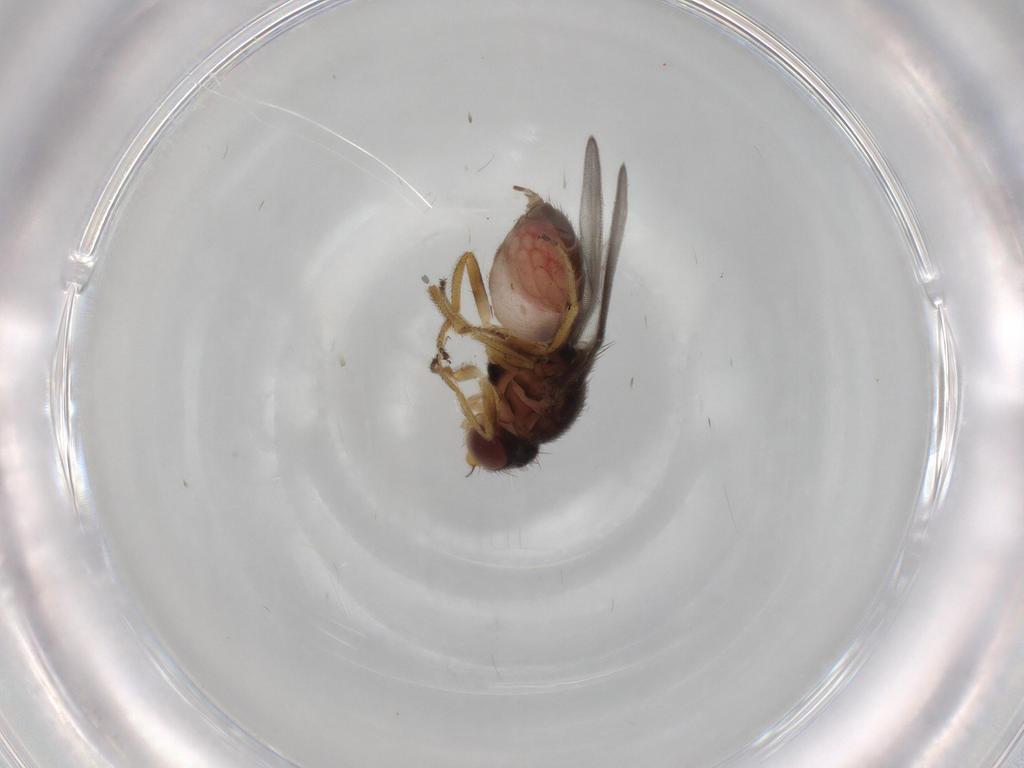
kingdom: Animalia
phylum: Arthropoda
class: Insecta
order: Diptera
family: Chloropidae
